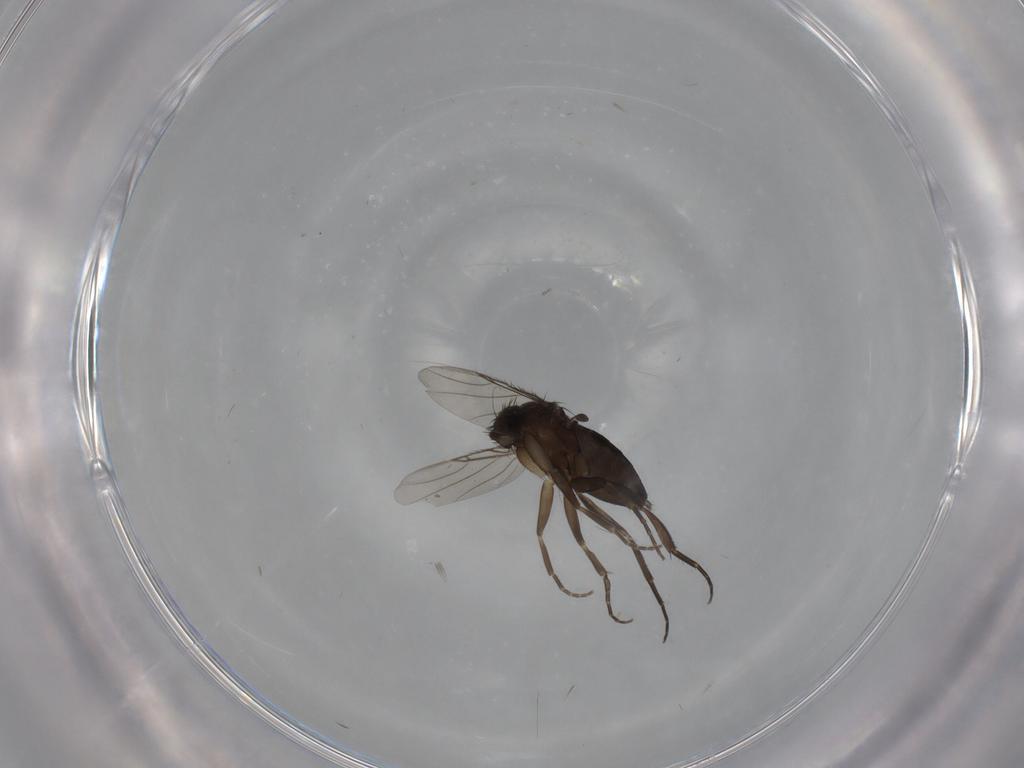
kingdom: Animalia
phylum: Arthropoda
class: Insecta
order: Diptera
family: Phoridae
